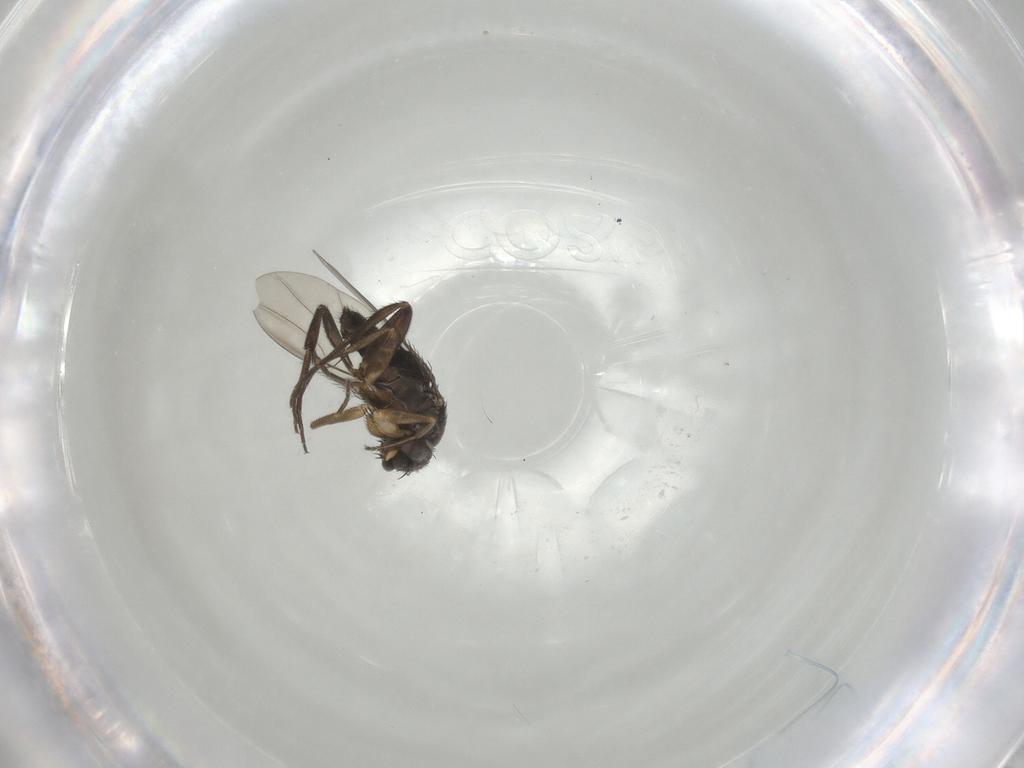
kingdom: Animalia
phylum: Arthropoda
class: Insecta
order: Diptera
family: Phoridae
